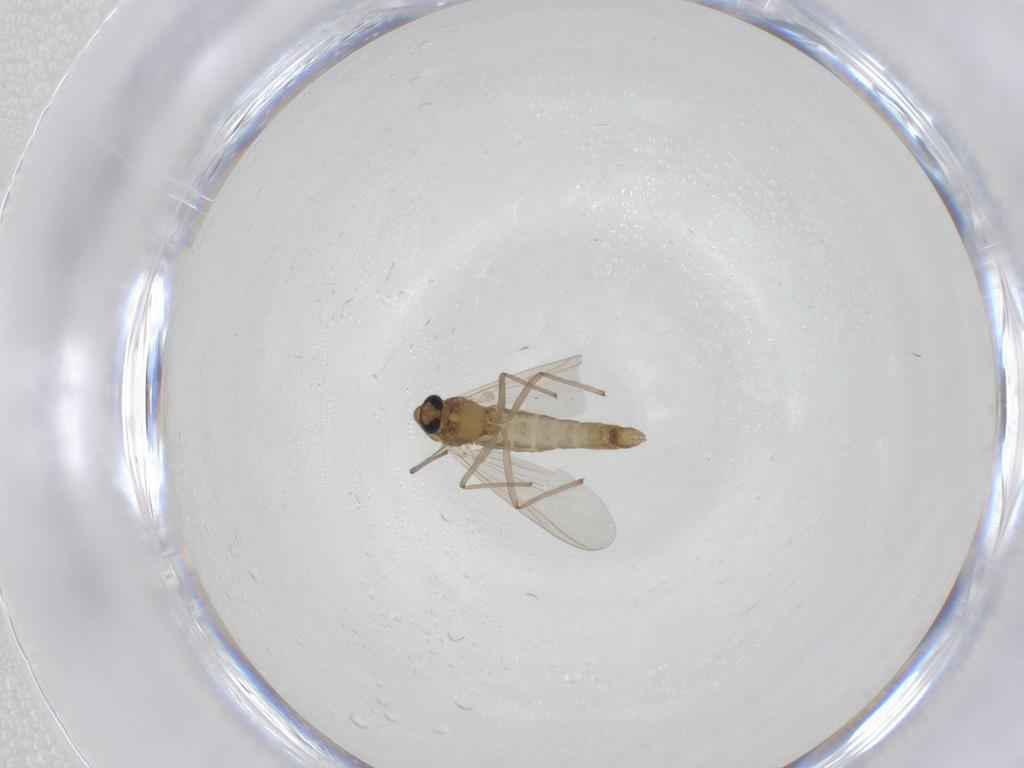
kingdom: Animalia
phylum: Arthropoda
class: Insecta
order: Diptera
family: Chironomidae
